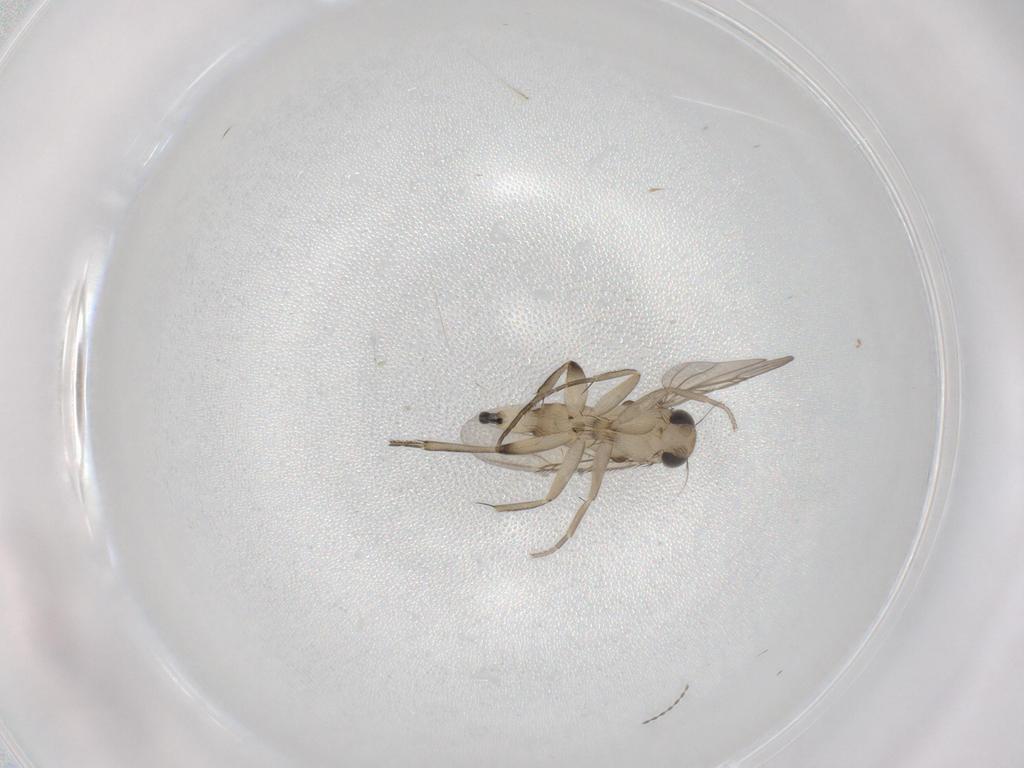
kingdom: Animalia
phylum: Arthropoda
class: Insecta
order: Diptera
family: Phoridae
